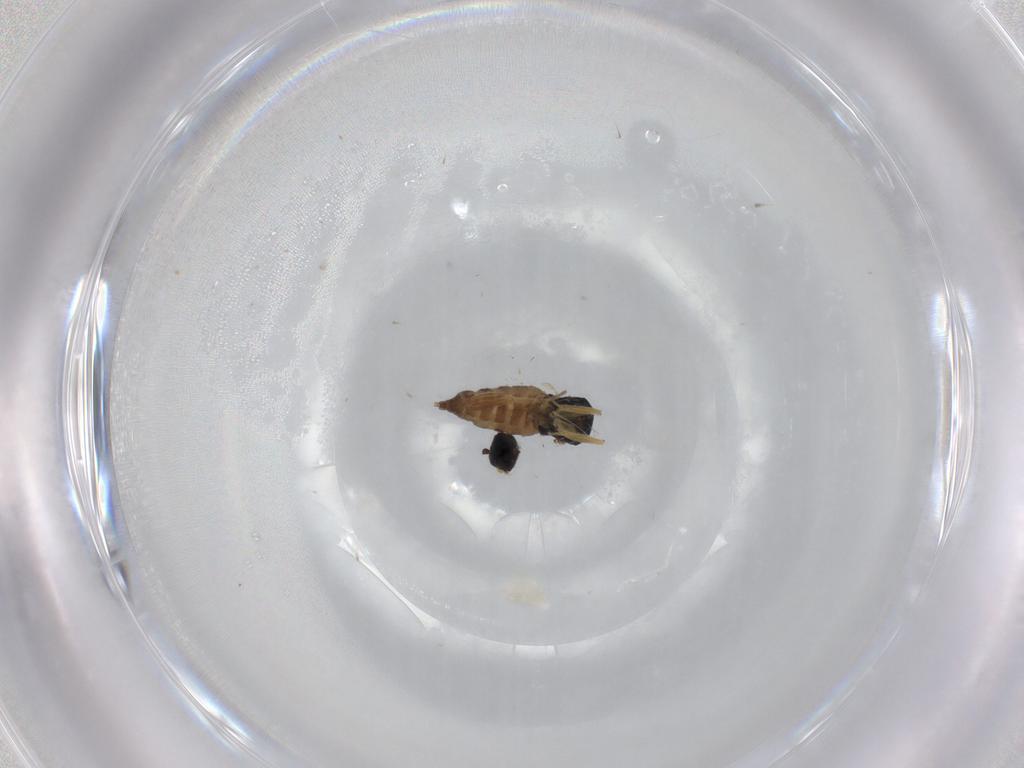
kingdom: Animalia
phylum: Arthropoda
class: Insecta
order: Diptera
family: Hybotidae
